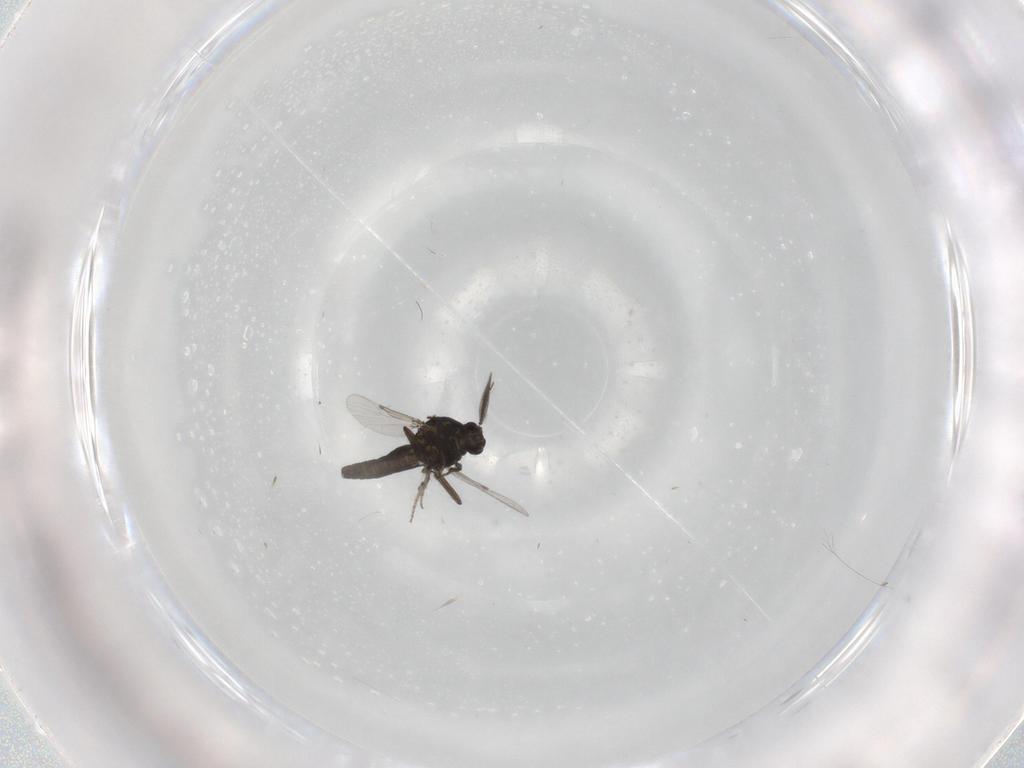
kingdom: Animalia
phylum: Arthropoda
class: Insecta
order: Diptera
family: Ceratopogonidae
